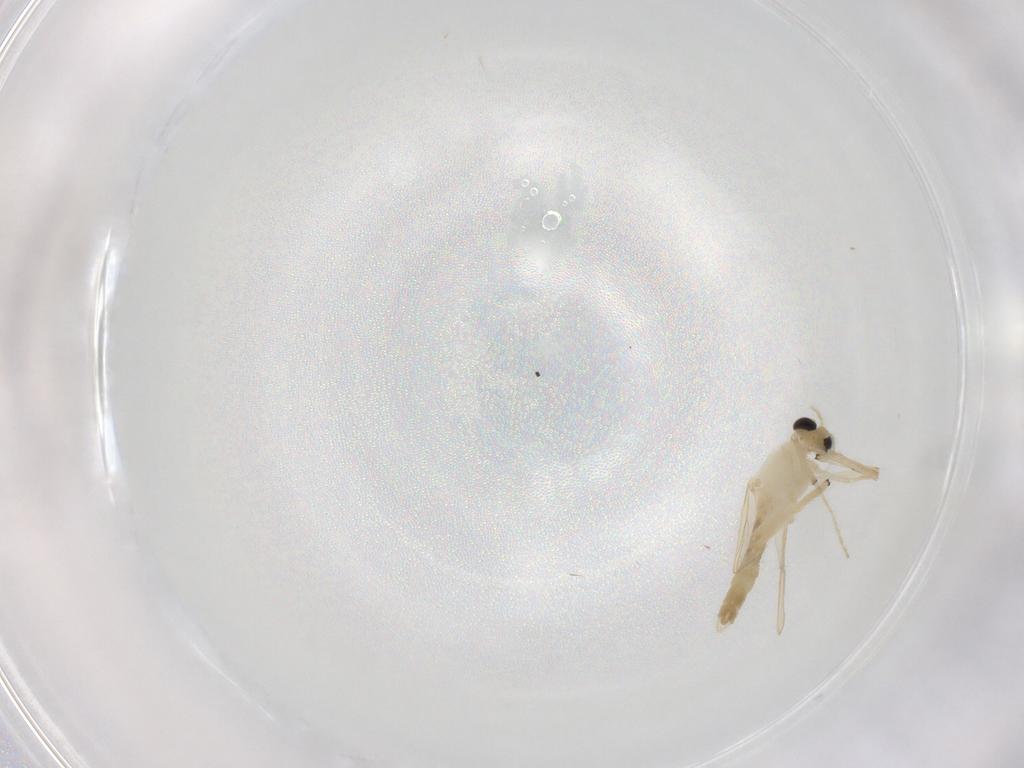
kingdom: Animalia
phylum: Arthropoda
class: Insecta
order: Diptera
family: Chironomidae
